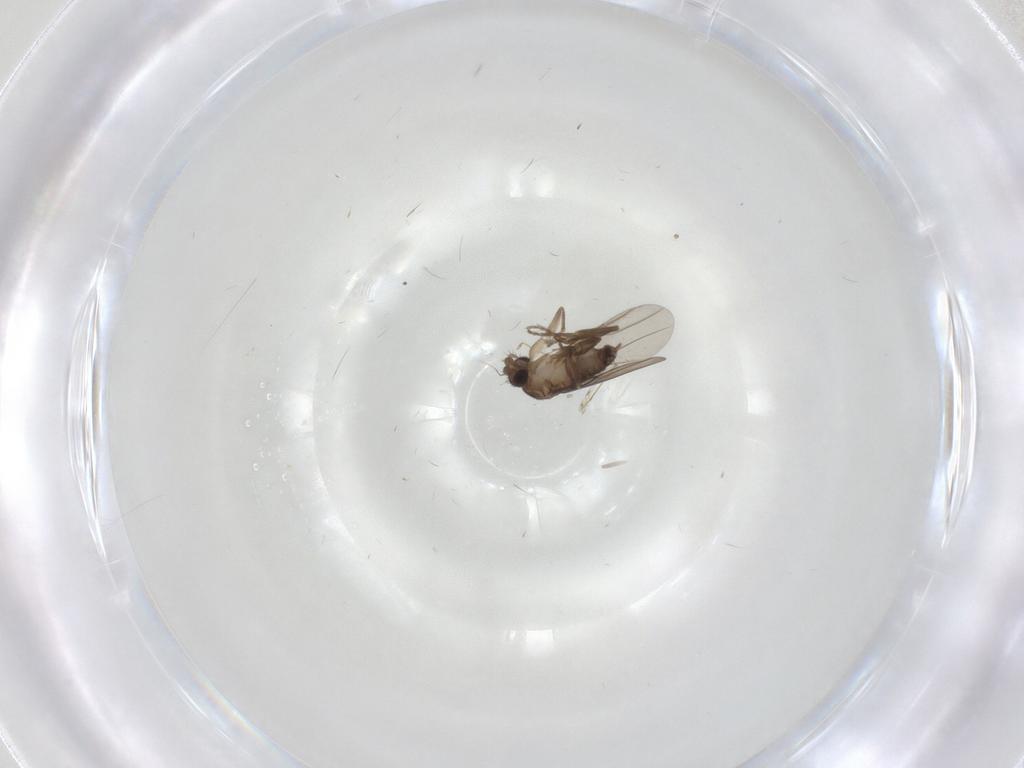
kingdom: Animalia
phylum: Arthropoda
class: Insecta
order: Diptera
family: Phoridae
